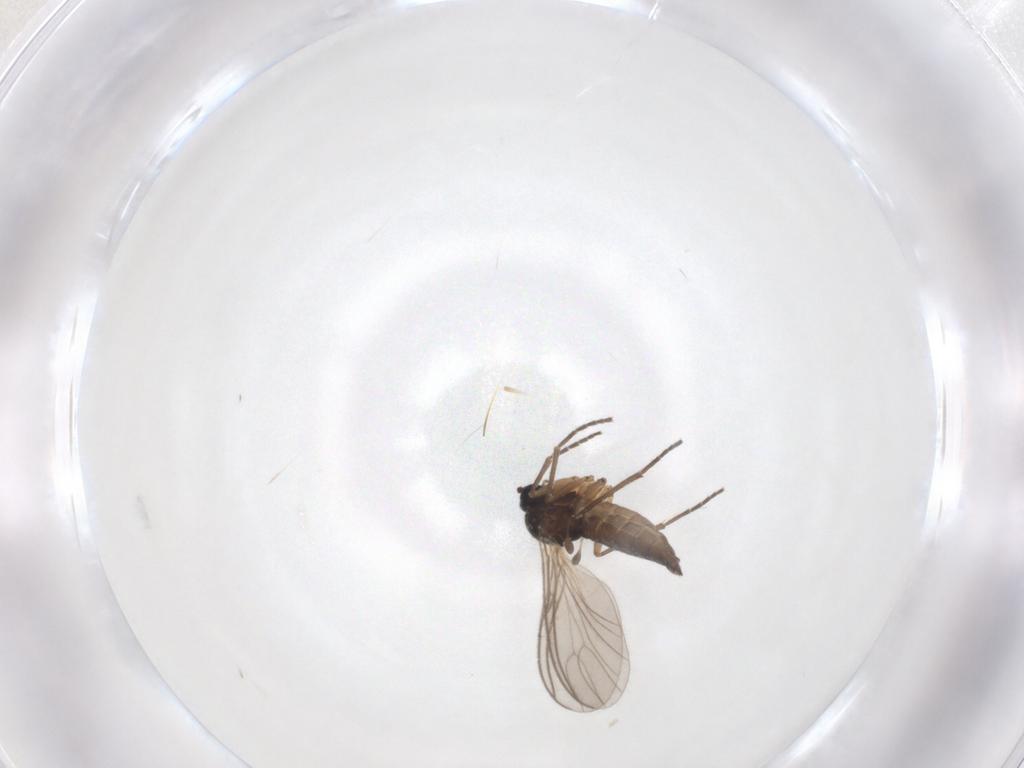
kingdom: Animalia
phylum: Arthropoda
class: Insecta
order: Diptera
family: Sciaridae
